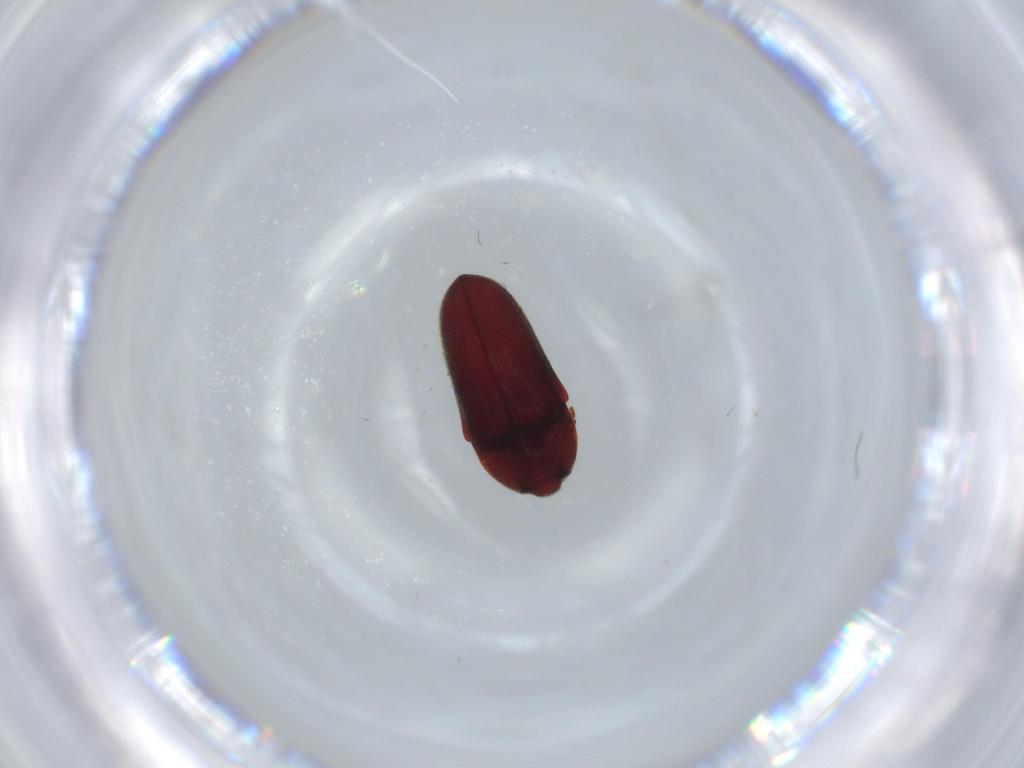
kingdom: Animalia
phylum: Arthropoda
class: Insecta
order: Coleoptera
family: Throscidae
